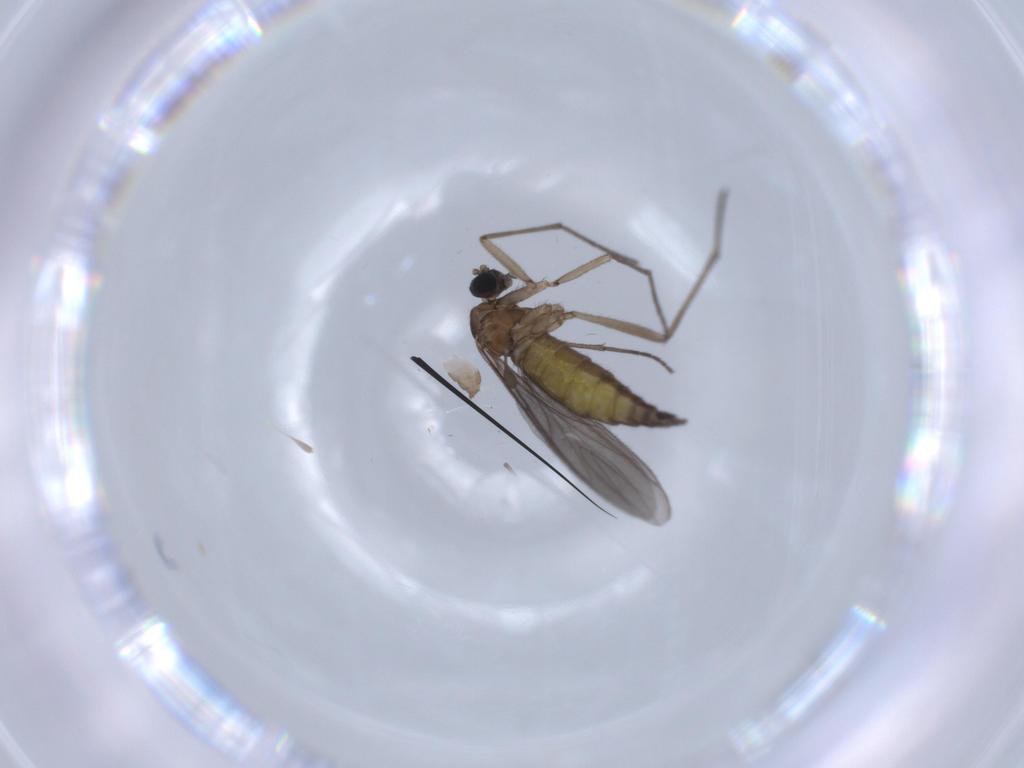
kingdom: Animalia
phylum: Arthropoda
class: Insecta
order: Diptera
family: Cecidomyiidae
